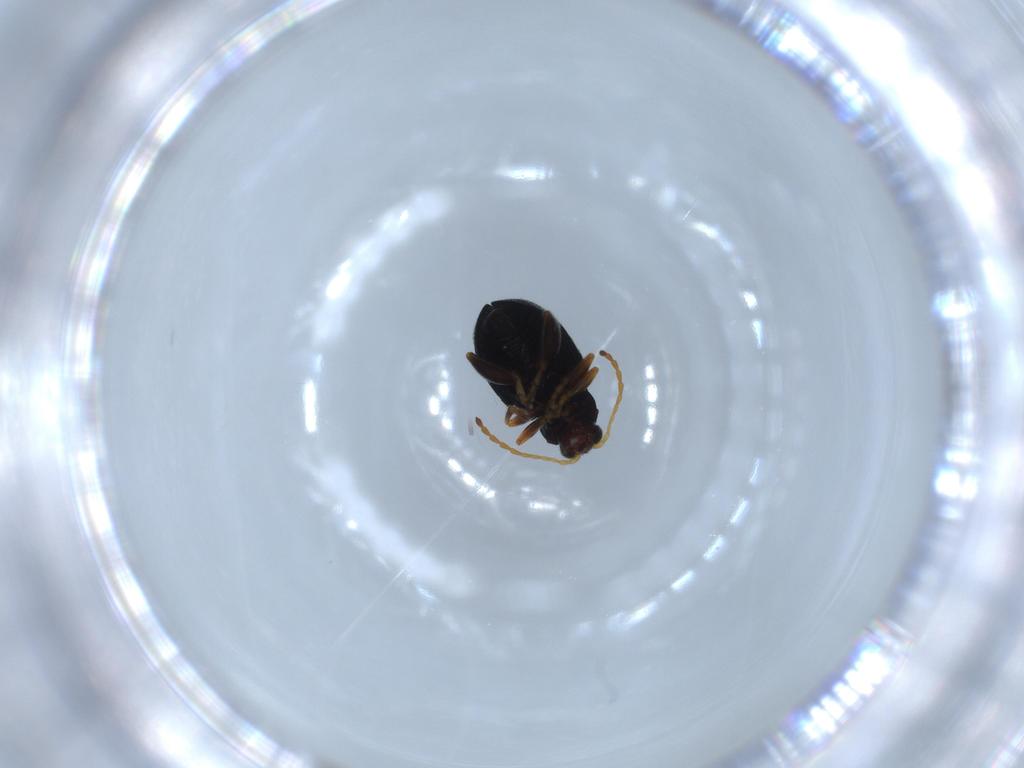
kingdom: Animalia
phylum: Arthropoda
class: Insecta
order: Coleoptera
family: Chrysomelidae
